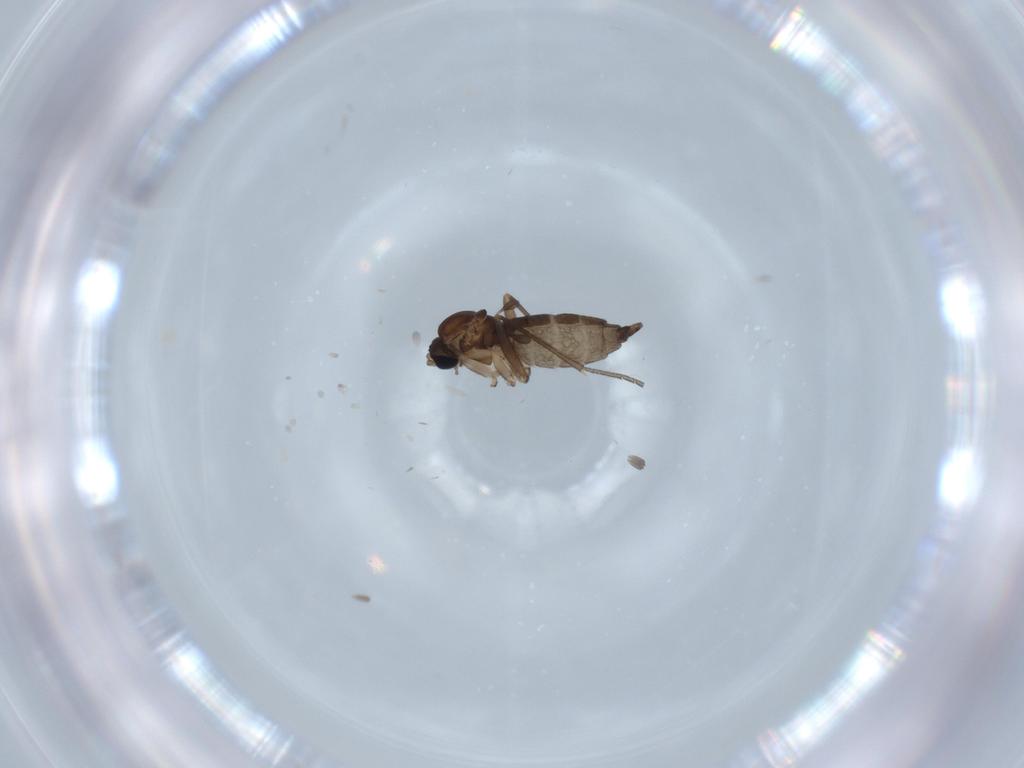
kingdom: Animalia
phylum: Arthropoda
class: Insecta
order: Diptera
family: Sciaridae
